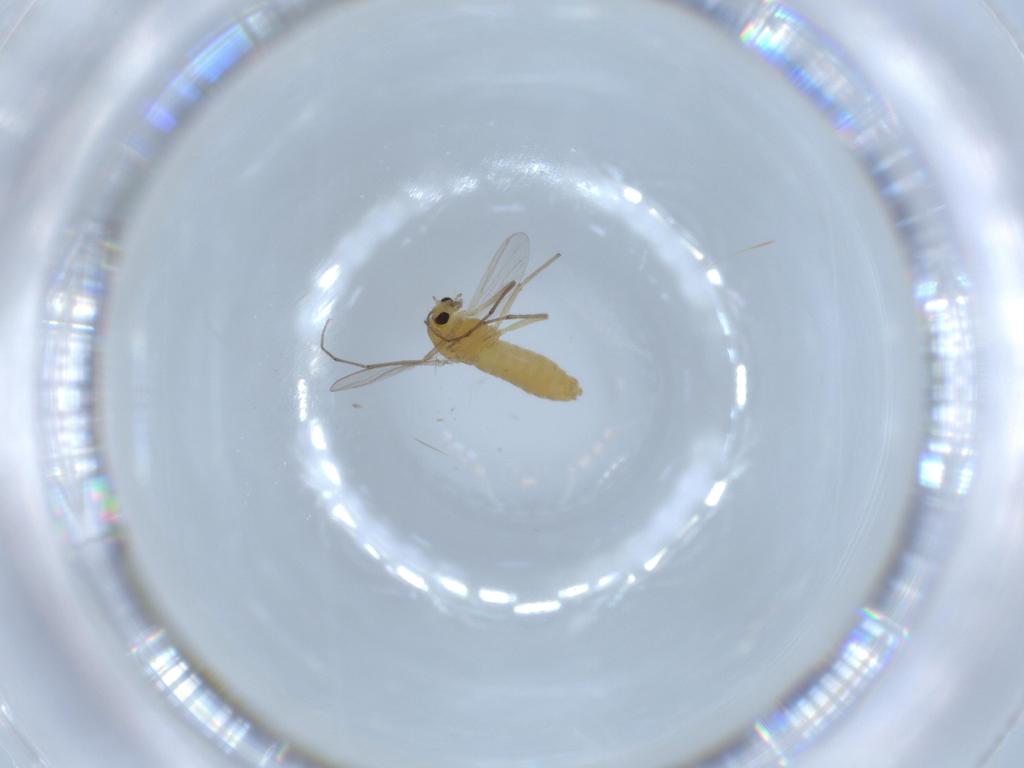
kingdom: Animalia
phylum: Arthropoda
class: Insecta
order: Diptera
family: Chironomidae
